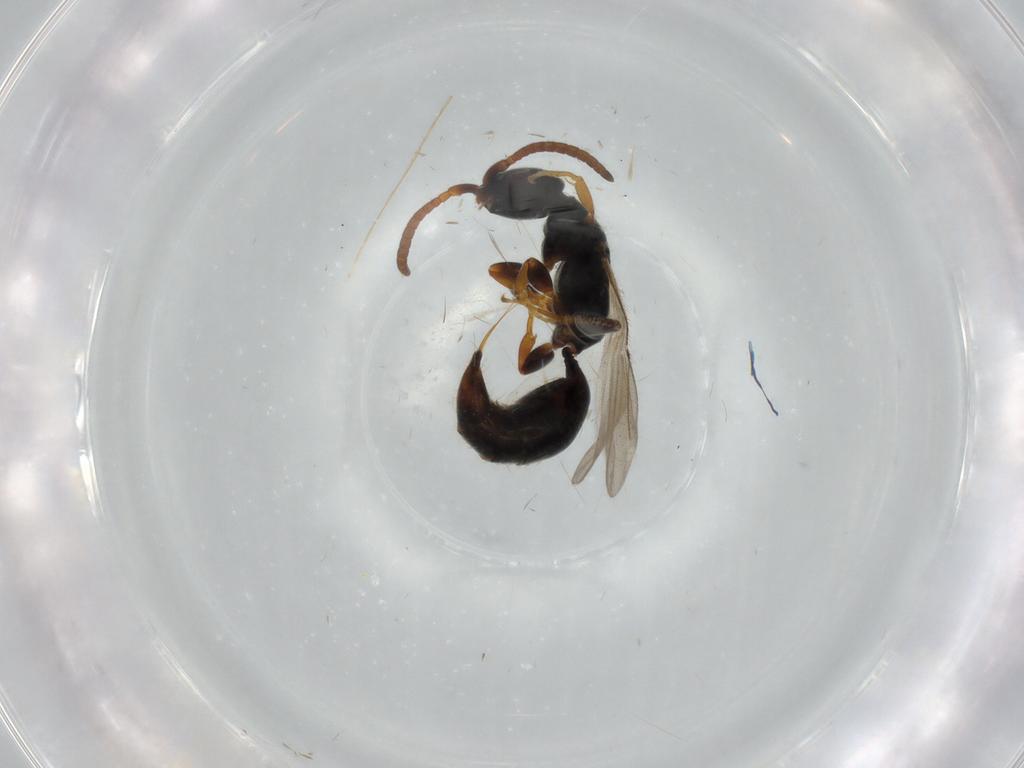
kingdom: Animalia
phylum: Arthropoda
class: Insecta
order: Hymenoptera
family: Bethylidae
